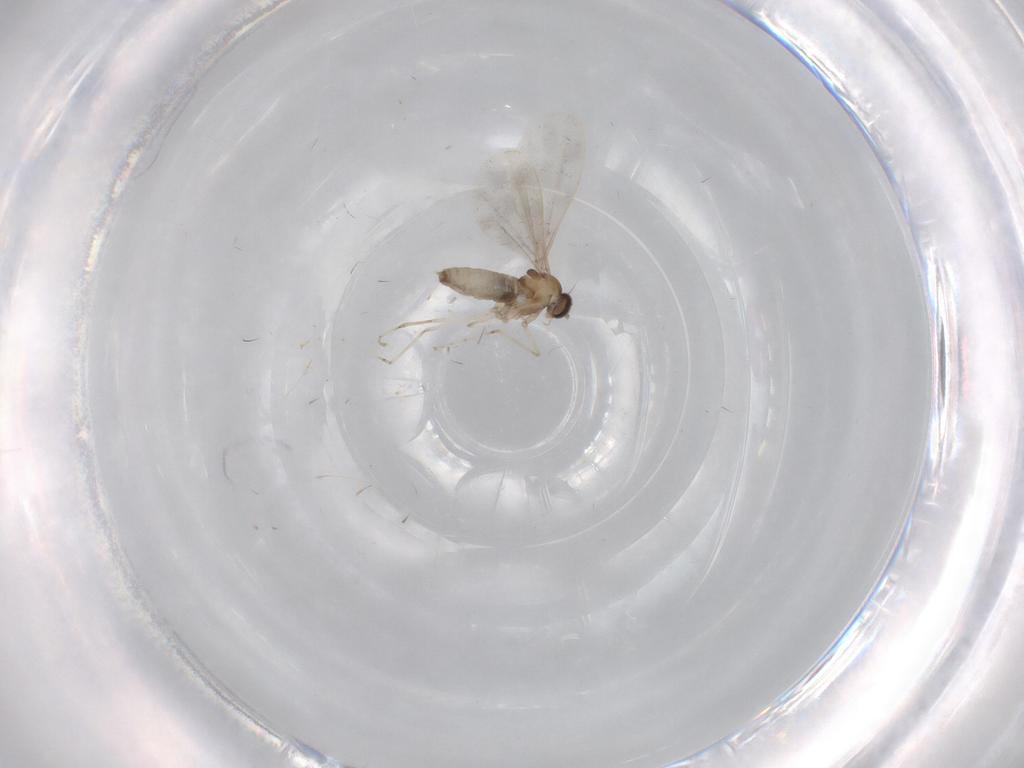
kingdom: Animalia
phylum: Arthropoda
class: Insecta
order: Diptera
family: Cecidomyiidae
